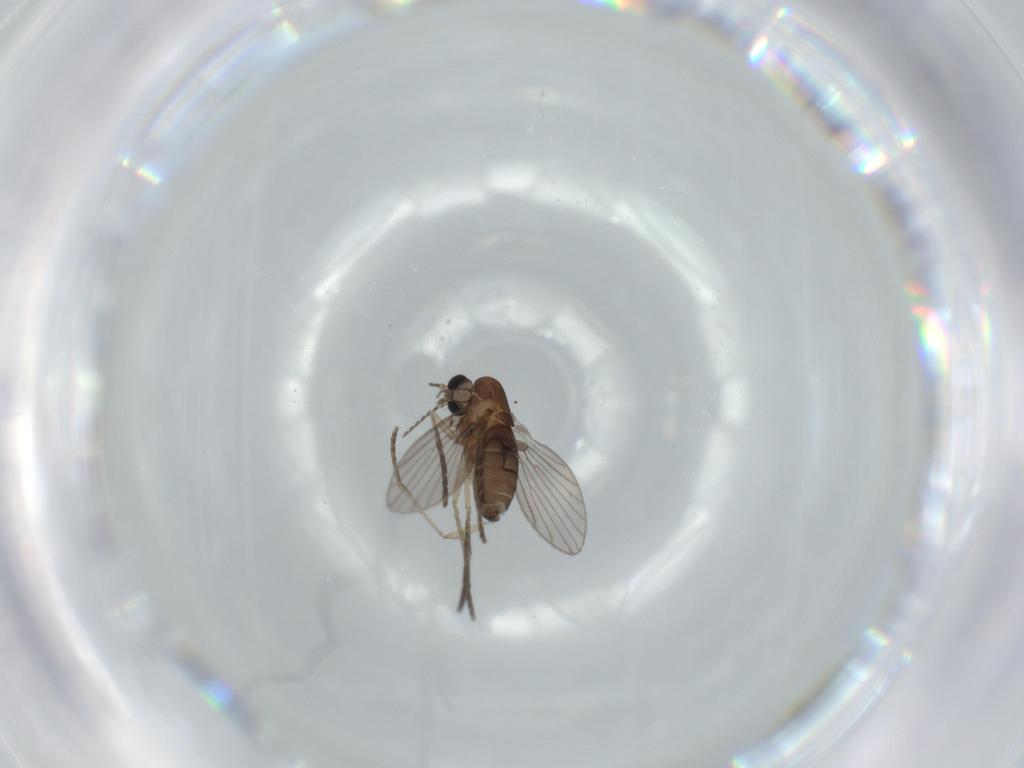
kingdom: Animalia
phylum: Arthropoda
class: Insecta
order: Diptera
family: Psychodidae
